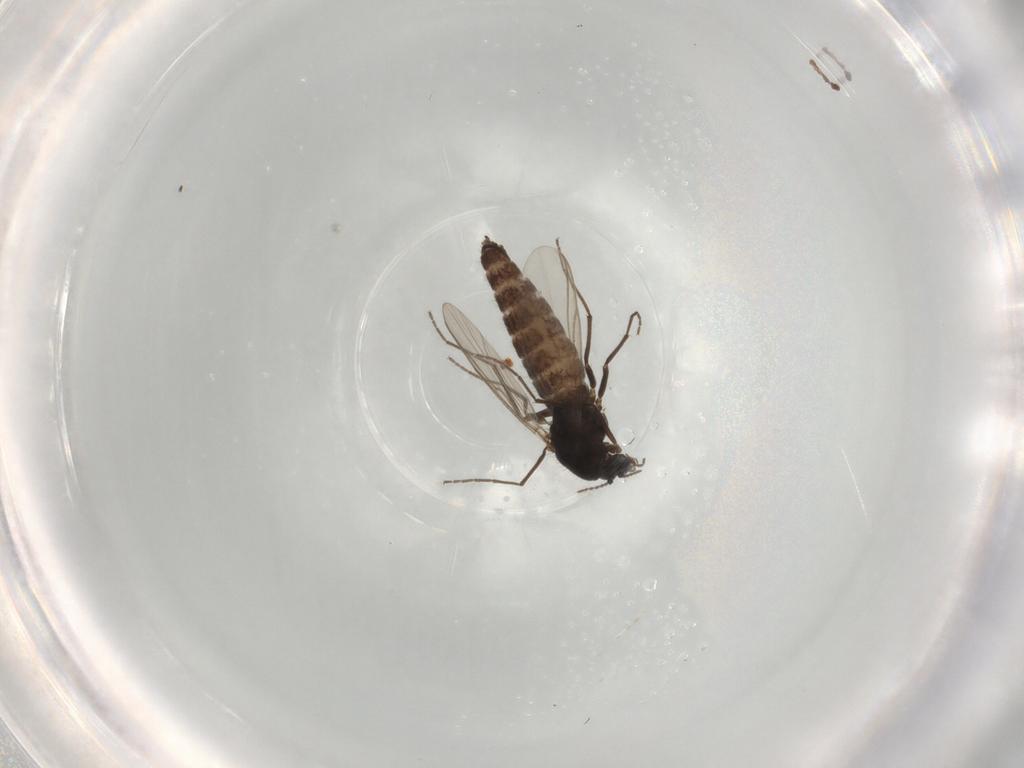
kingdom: Animalia
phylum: Arthropoda
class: Insecta
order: Diptera
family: Chironomidae
